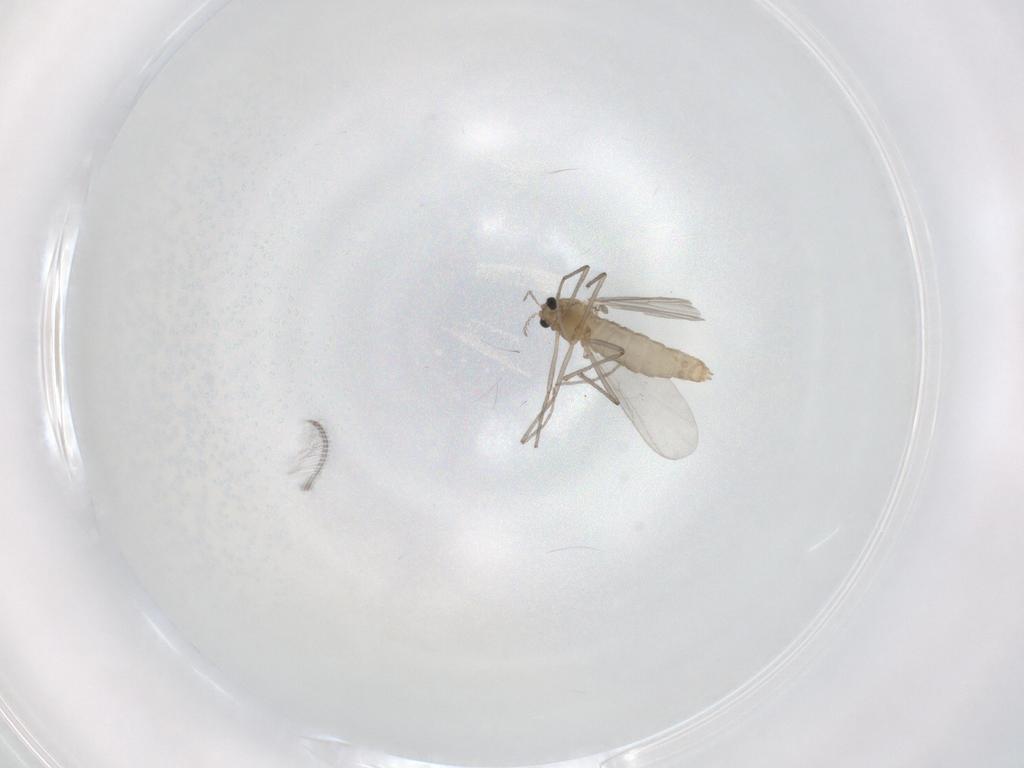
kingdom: Animalia
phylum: Arthropoda
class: Insecta
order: Diptera
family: Chironomidae
